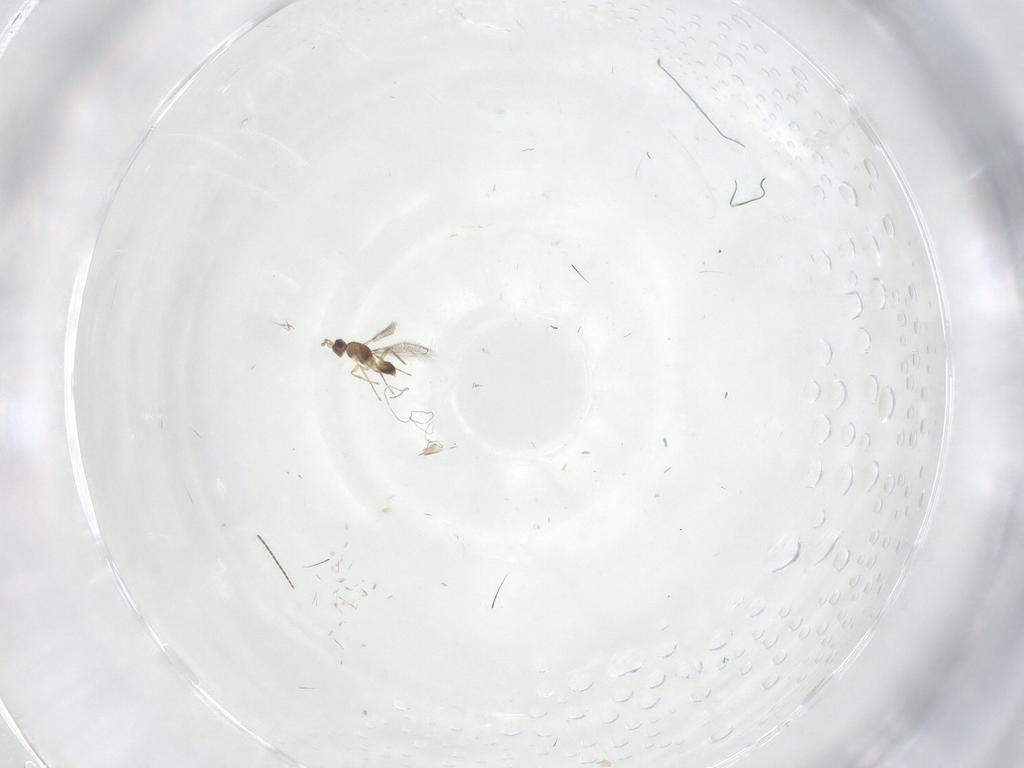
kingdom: Animalia
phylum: Arthropoda
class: Insecta
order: Hymenoptera
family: Mymaridae
